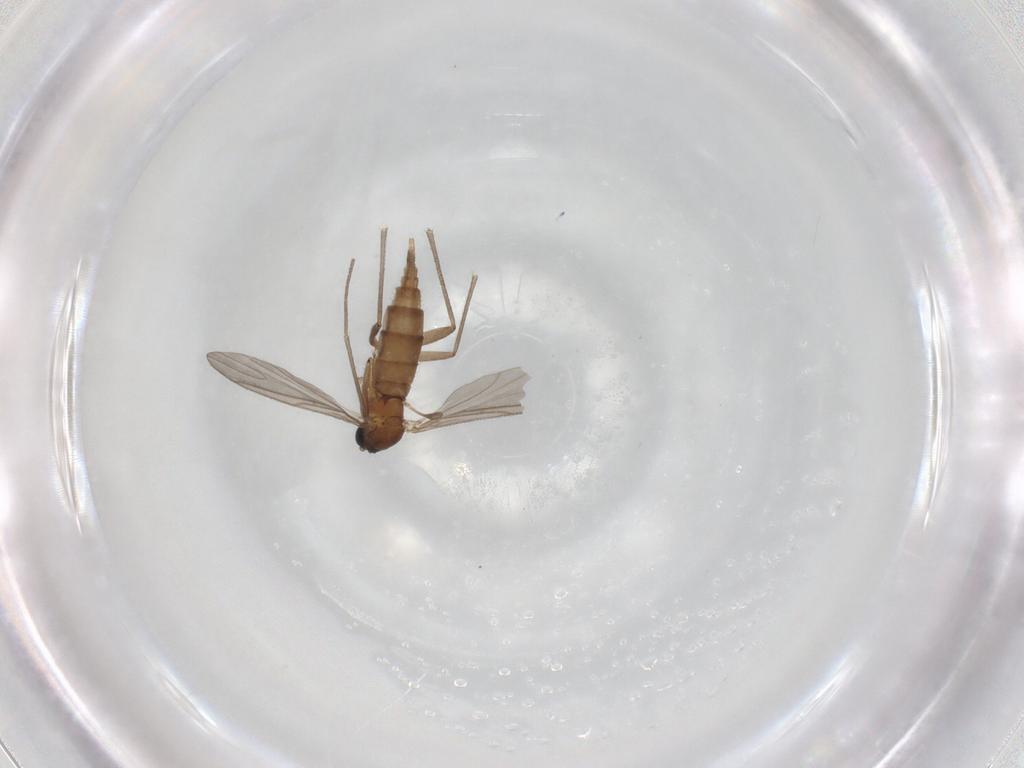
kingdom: Animalia
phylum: Arthropoda
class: Insecta
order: Diptera
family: Sciaridae
